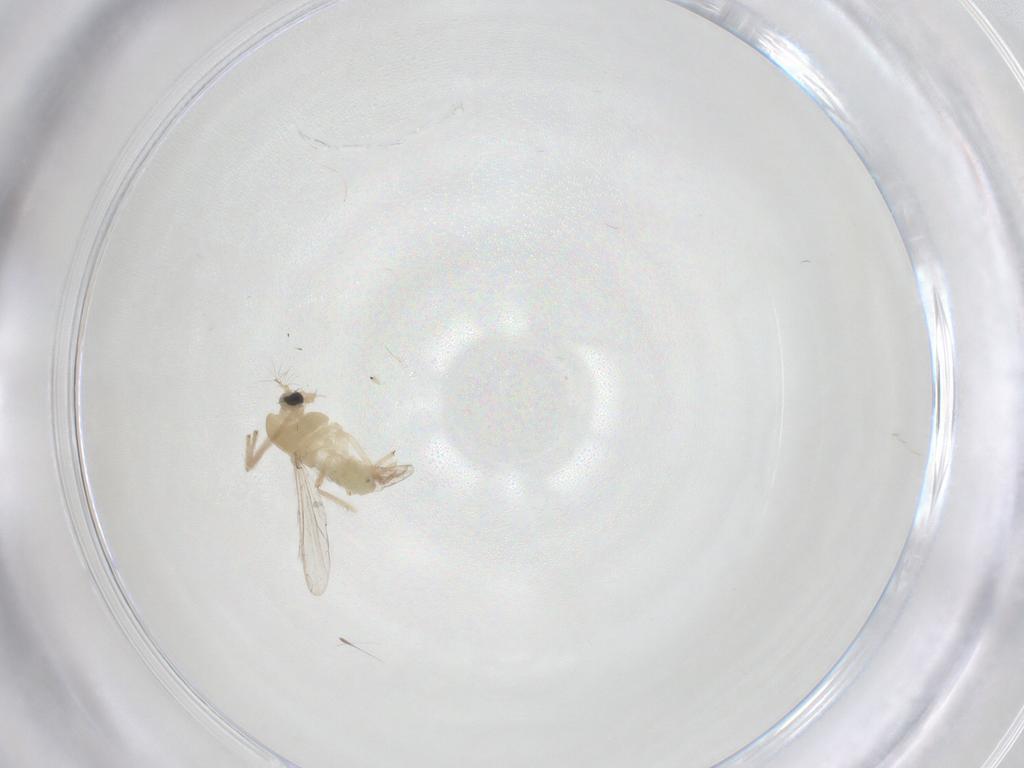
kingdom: Animalia
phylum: Arthropoda
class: Insecta
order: Diptera
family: Chironomidae
